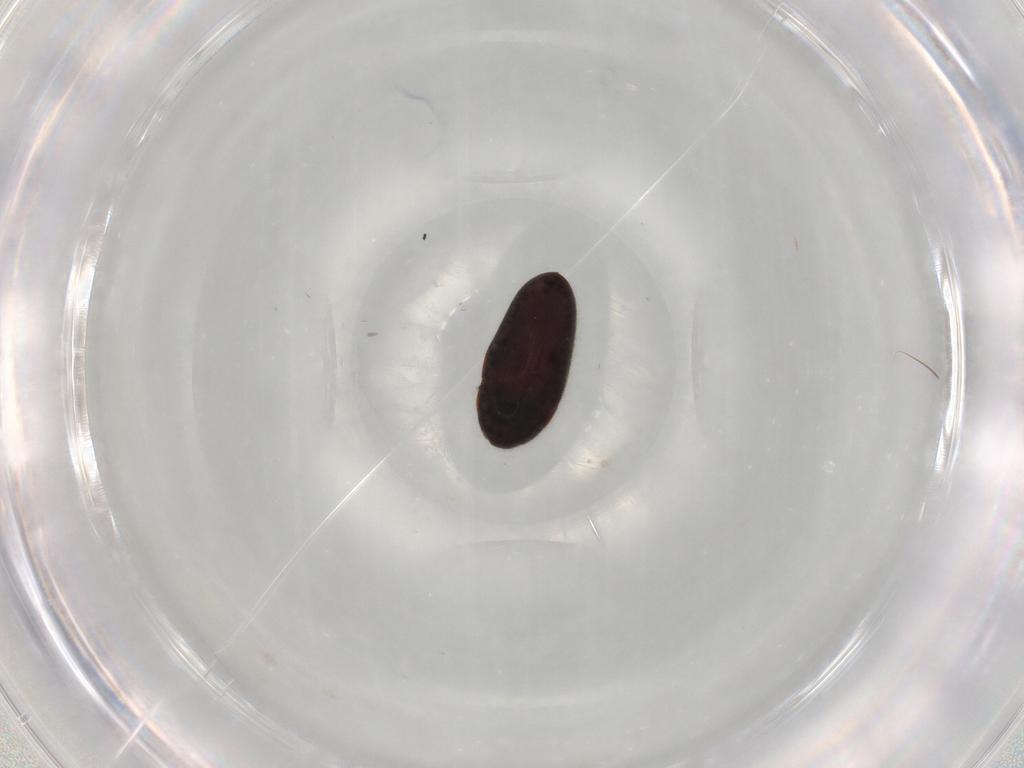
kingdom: Animalia
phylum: Arthropoda
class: Insecta
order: Coleoptera
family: Throscidae
